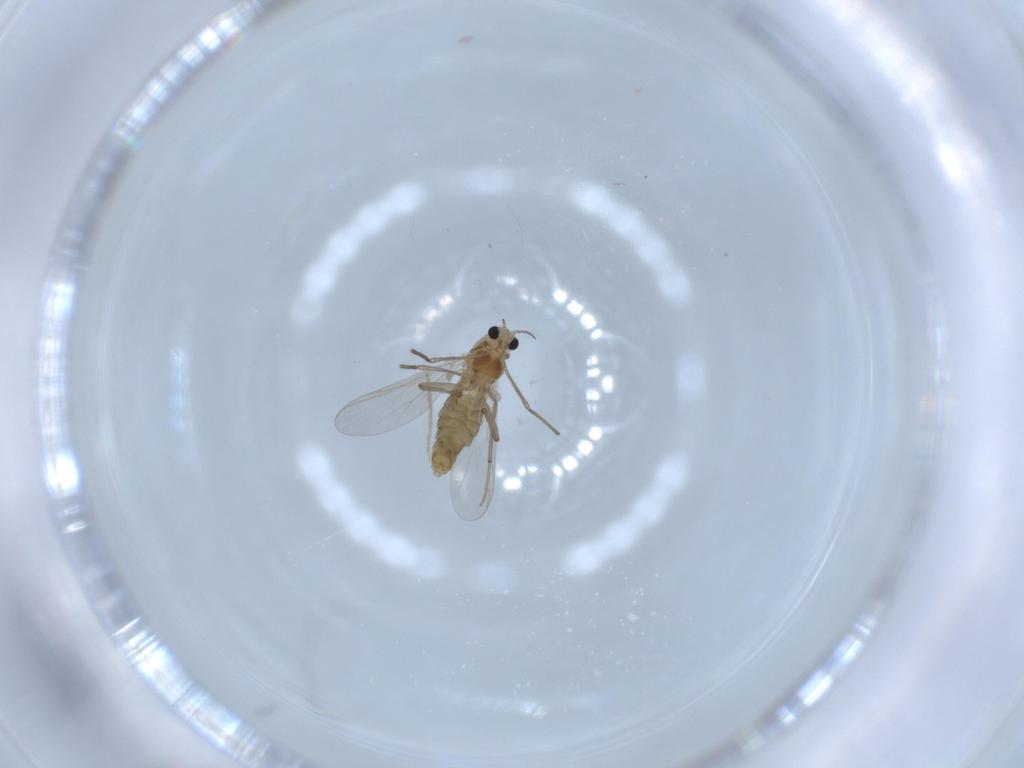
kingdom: Animalia
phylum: Arthropoda
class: Insecta
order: Diptera
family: Chironomidae
